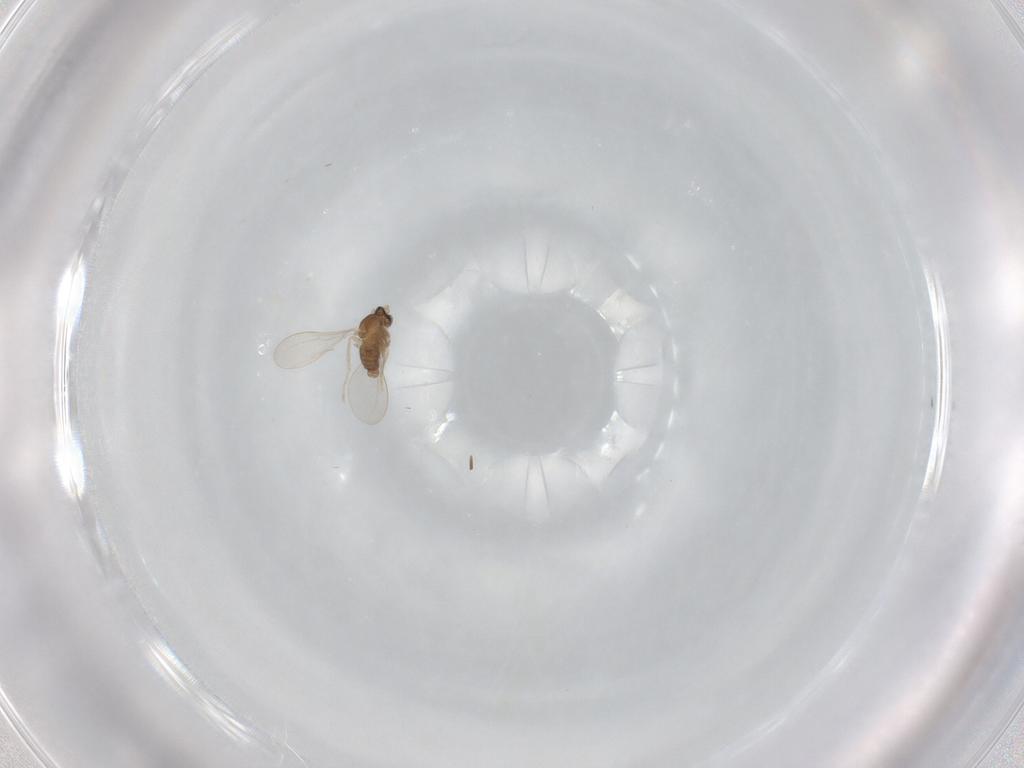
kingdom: Animalia
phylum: Arthropoda
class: Insecta
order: Diptera
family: Cecidomyiidae
